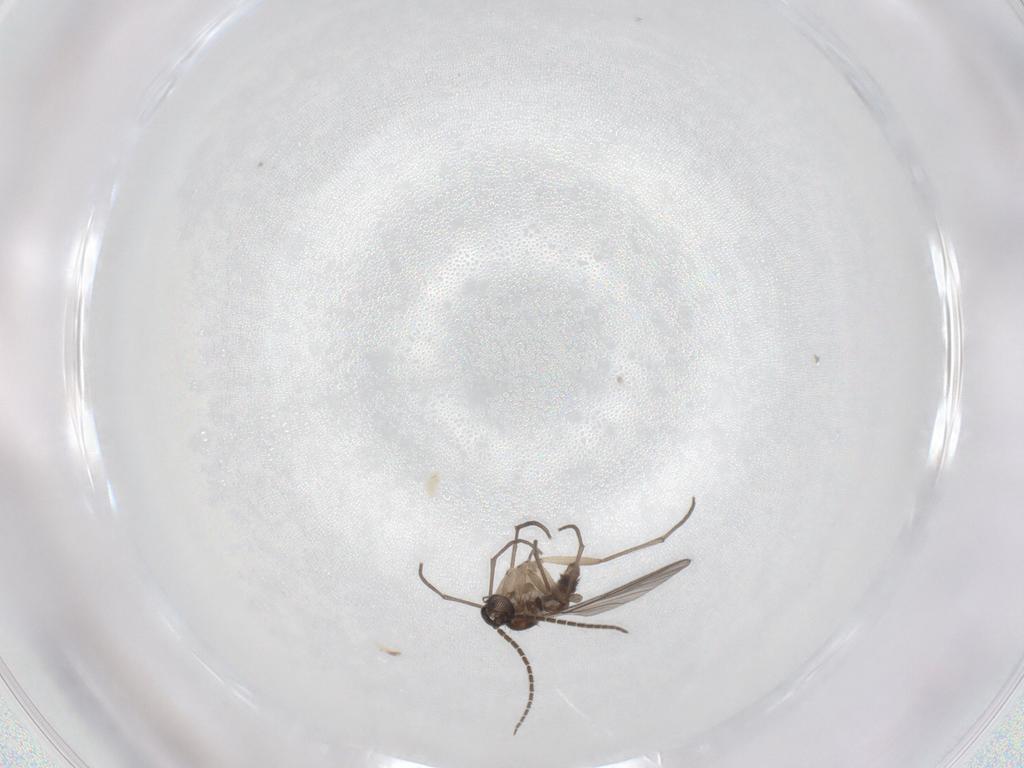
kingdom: Animalia
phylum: Arthropoda
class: Insecta
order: Diptera
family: Sciaridae
